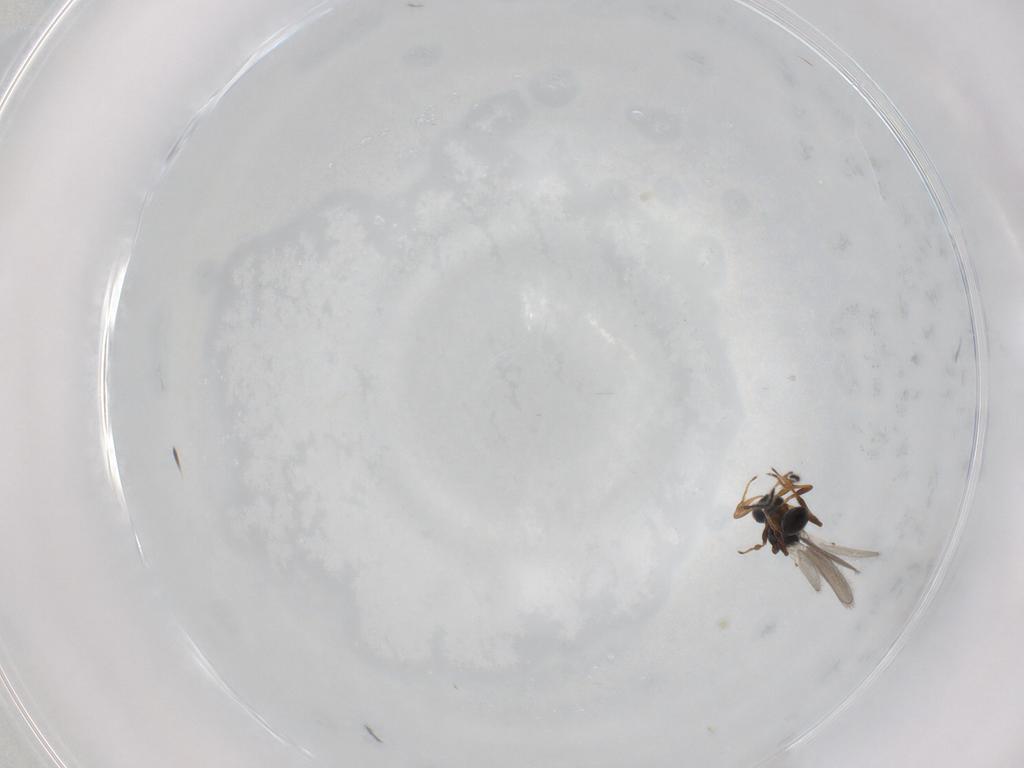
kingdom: Animalia
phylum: Arthropoda
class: Insecta
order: Hymenoptera
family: Platygastridae
